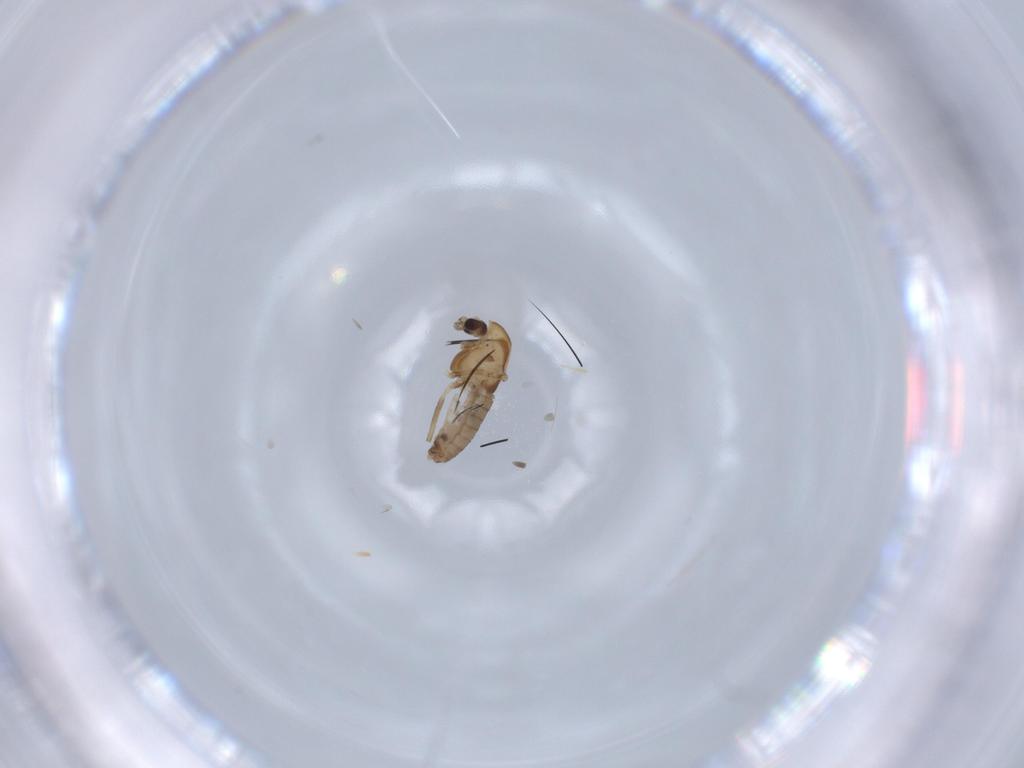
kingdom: Animalia
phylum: Arthropoda
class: Insecta
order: Diptera
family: Chironomidae
